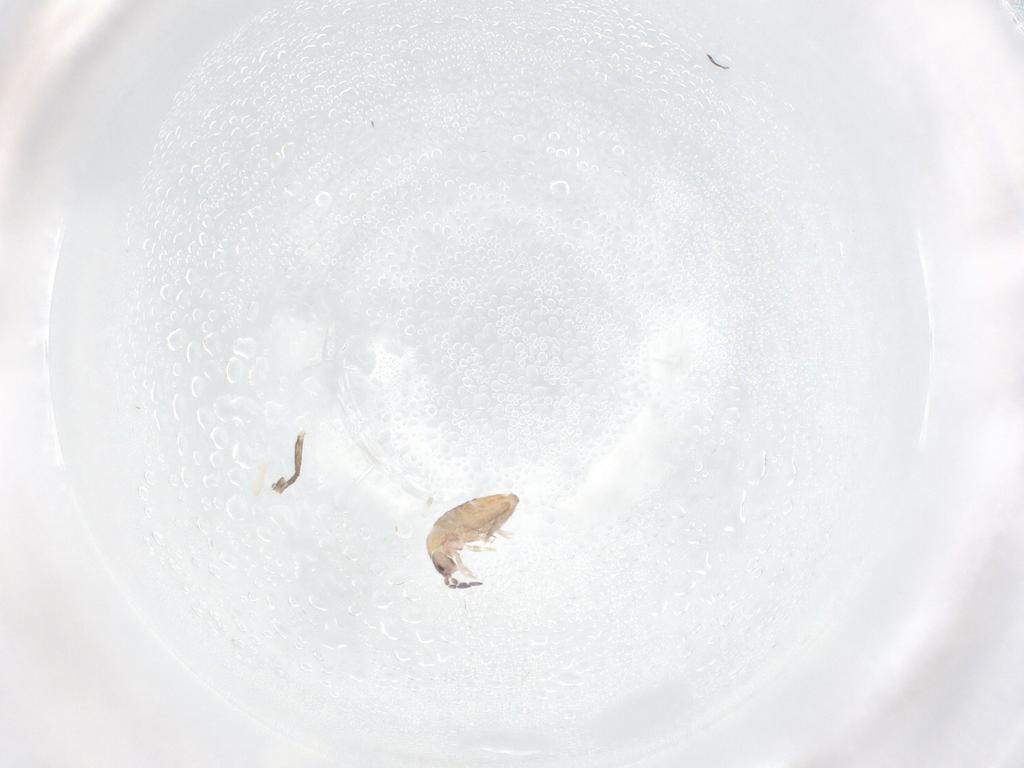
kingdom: Animalia
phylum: Arthropoda
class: Collembola
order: Entomobryomorpha
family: Entomobryidae
